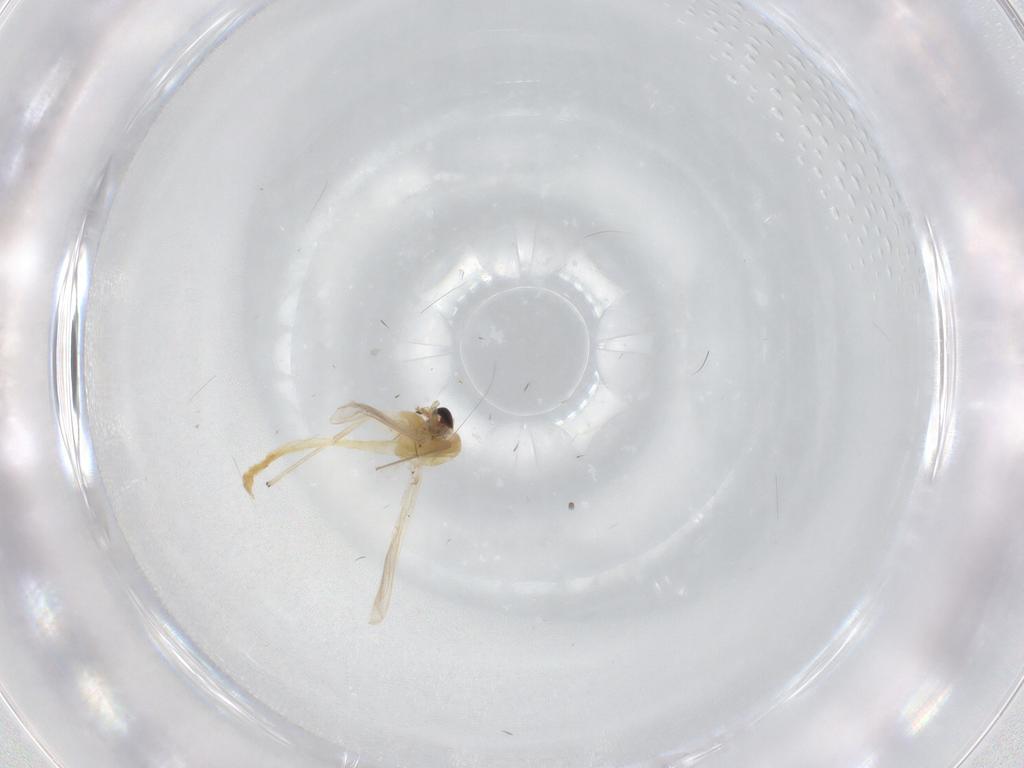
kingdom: Animalia
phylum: Arthropoda
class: Insecta
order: Diptera
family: Chironomidae
